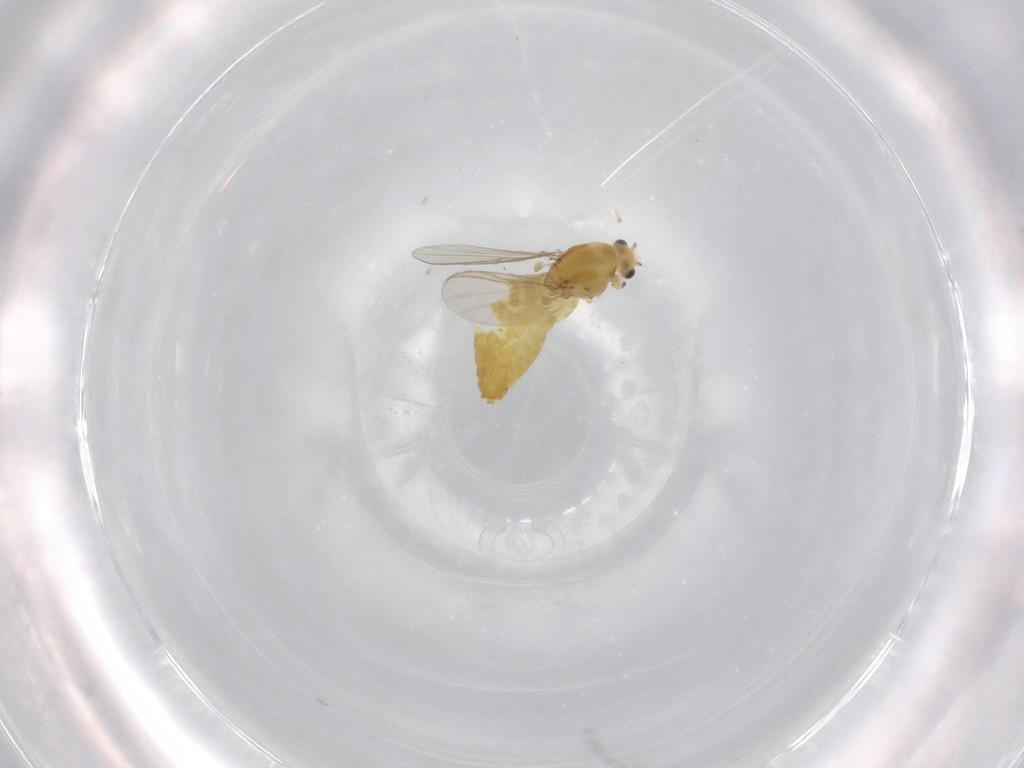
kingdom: Animalia
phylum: Arthropoda
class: Insecta
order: Diptera
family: Chironomidae
